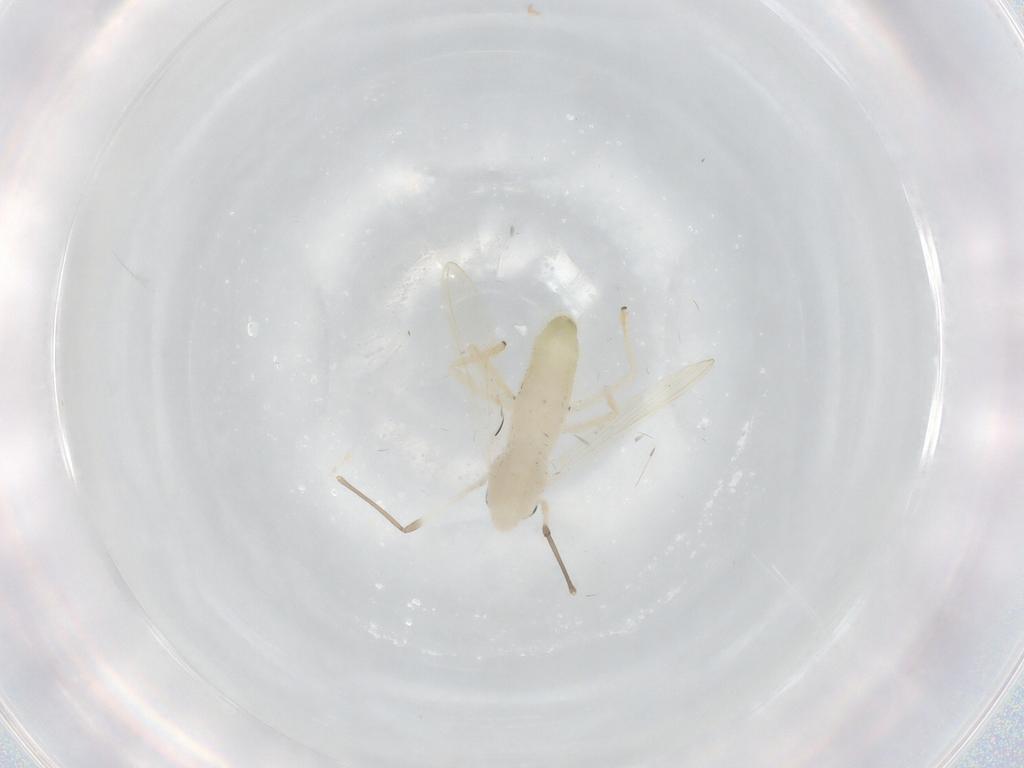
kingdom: Animalia
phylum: Arthropoda
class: Insecta
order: Diptera
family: Chironomidae
